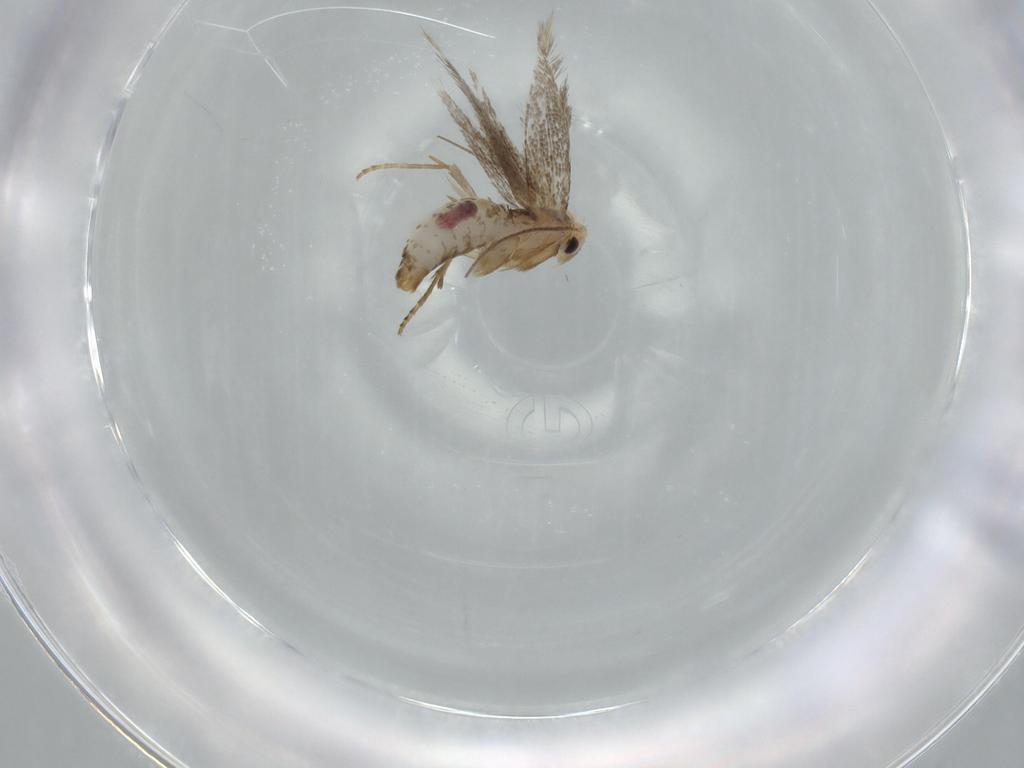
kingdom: Animalia
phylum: Arthropoda
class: Insecta
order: Lepidoptera
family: Bucculatricidae
